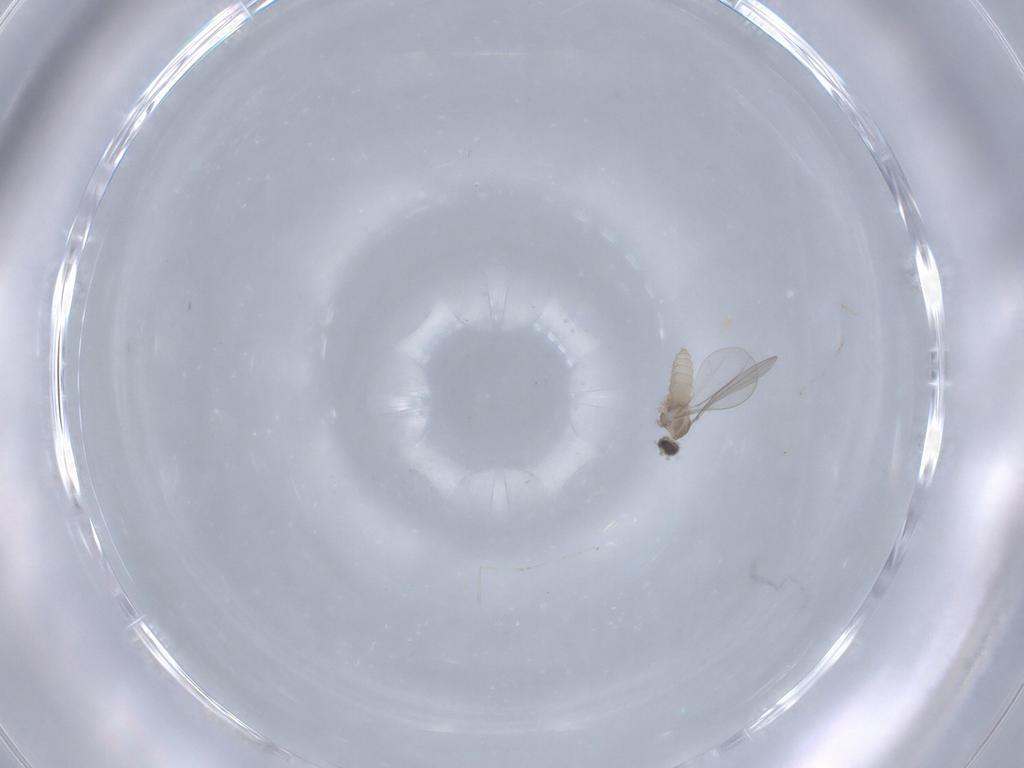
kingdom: Animalia
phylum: Arthropoda
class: Insecta
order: Diptera
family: Cecidomyiidae
